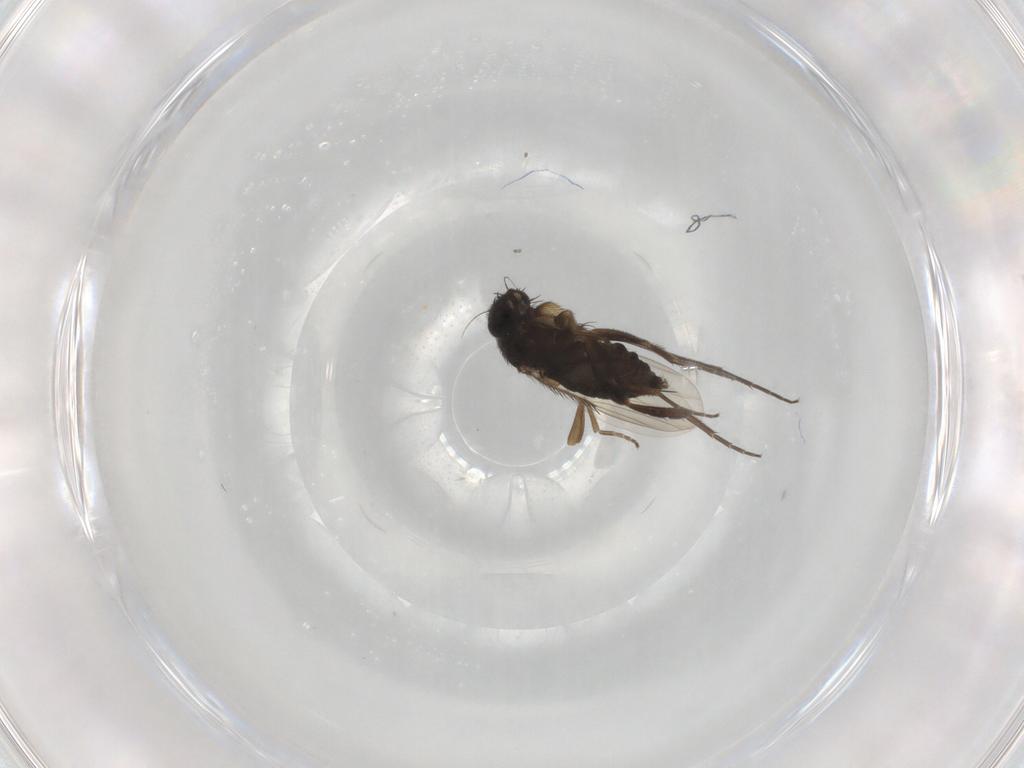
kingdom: Animalia
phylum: Arthropoda
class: Insecta
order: Diptera
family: Phoridae
